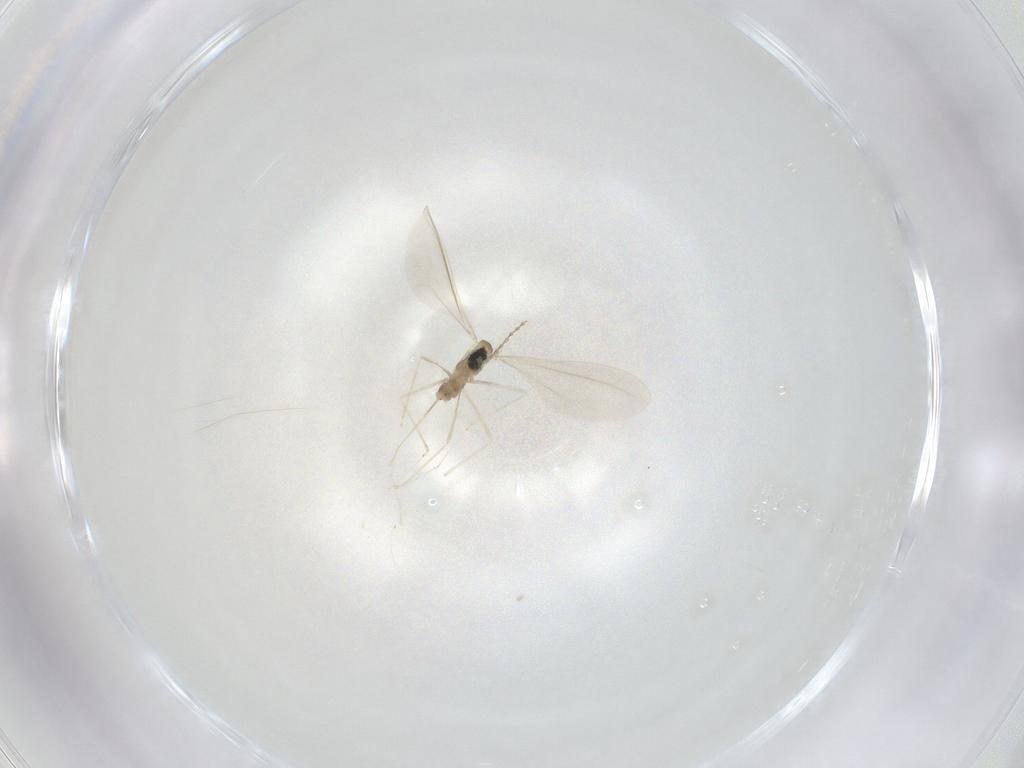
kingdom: Animalia
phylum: Arthropoda
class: Insecta
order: Diptera
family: Cecidomyiidae
